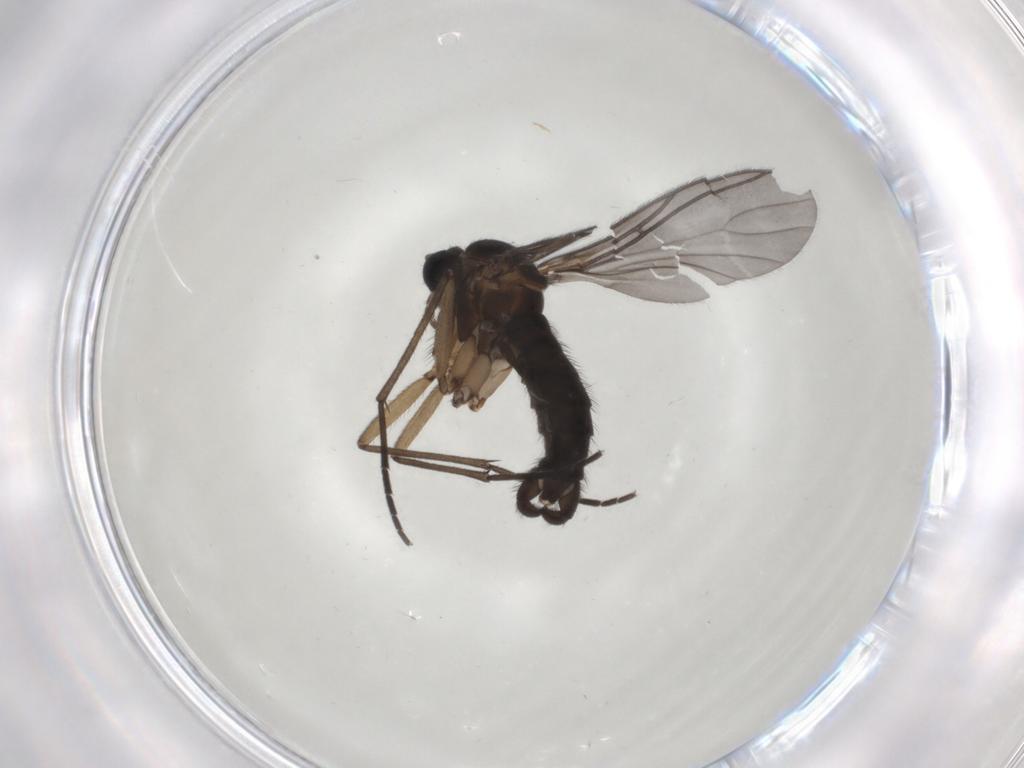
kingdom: Animalia
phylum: Arthropoda
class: Insecta
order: Diptera
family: Sciaridae
